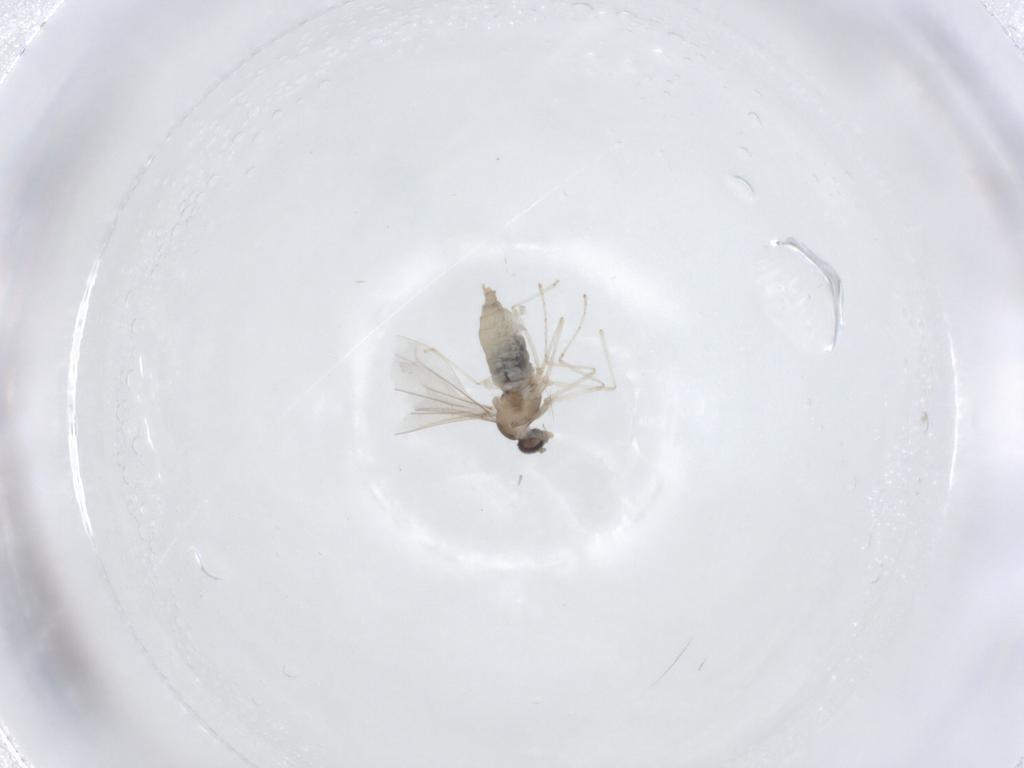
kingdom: Animalia
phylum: Arthropoda
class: Insecta
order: Diptera
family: Cecidomyiidae
